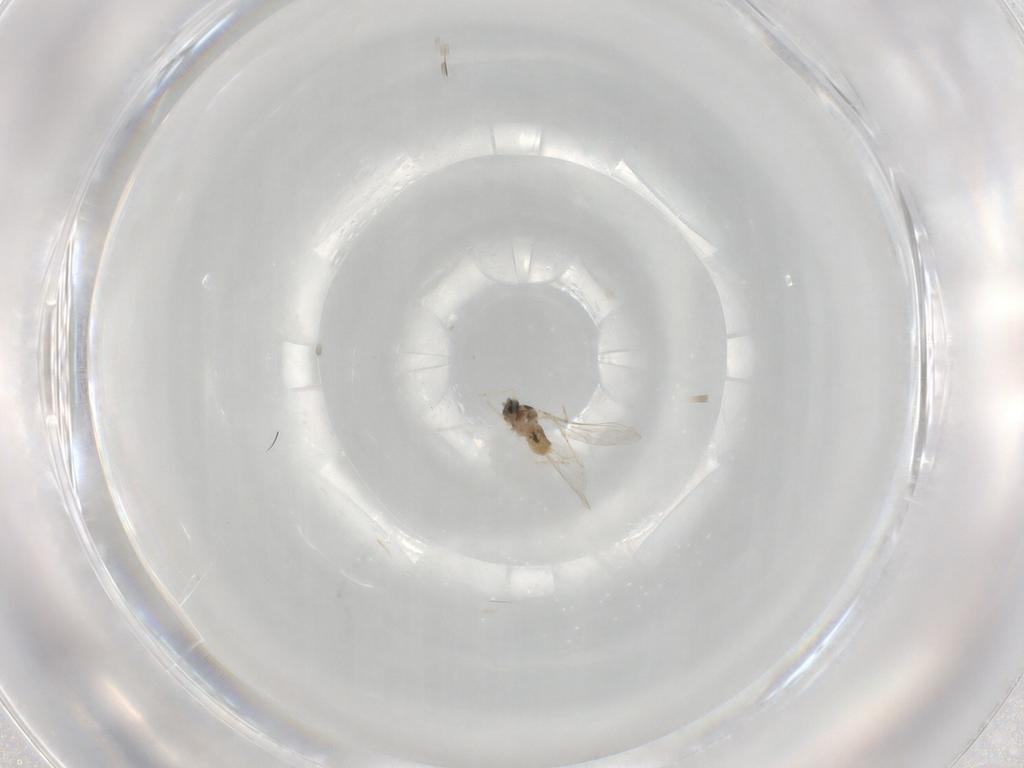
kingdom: Animalia
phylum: Arthropoda
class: Insecta
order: Diptera
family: Cecidomyiidae
